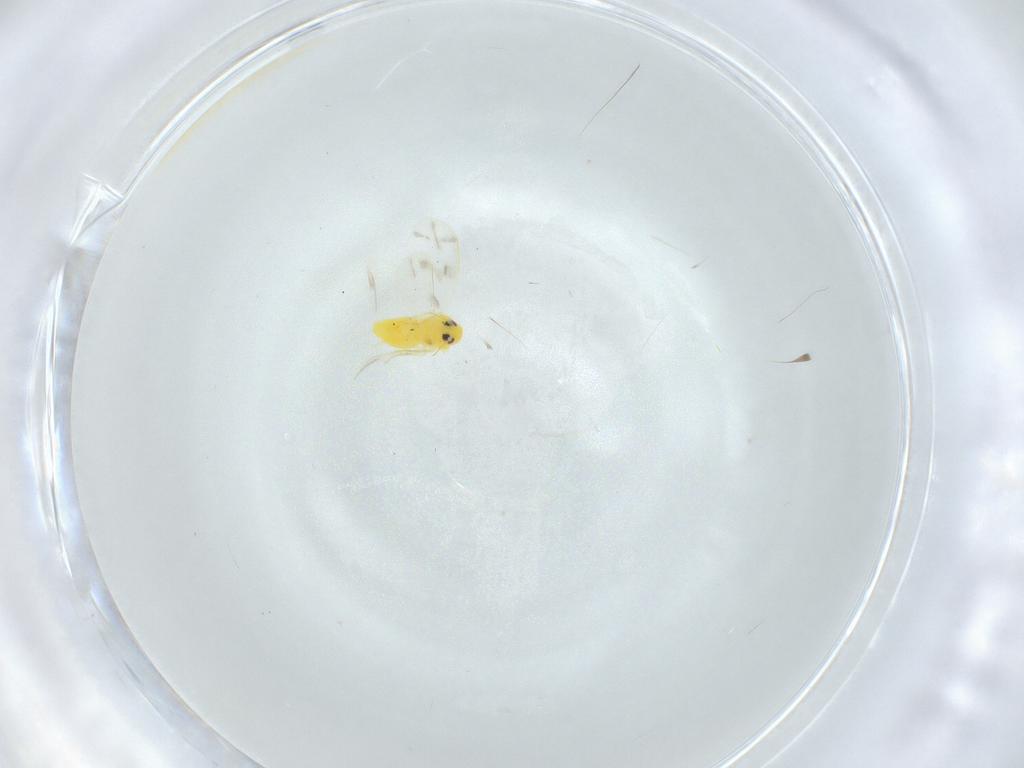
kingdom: Animalia
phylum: Arthropoda
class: Insecta
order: Hemiptera
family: Aleyrodidae
